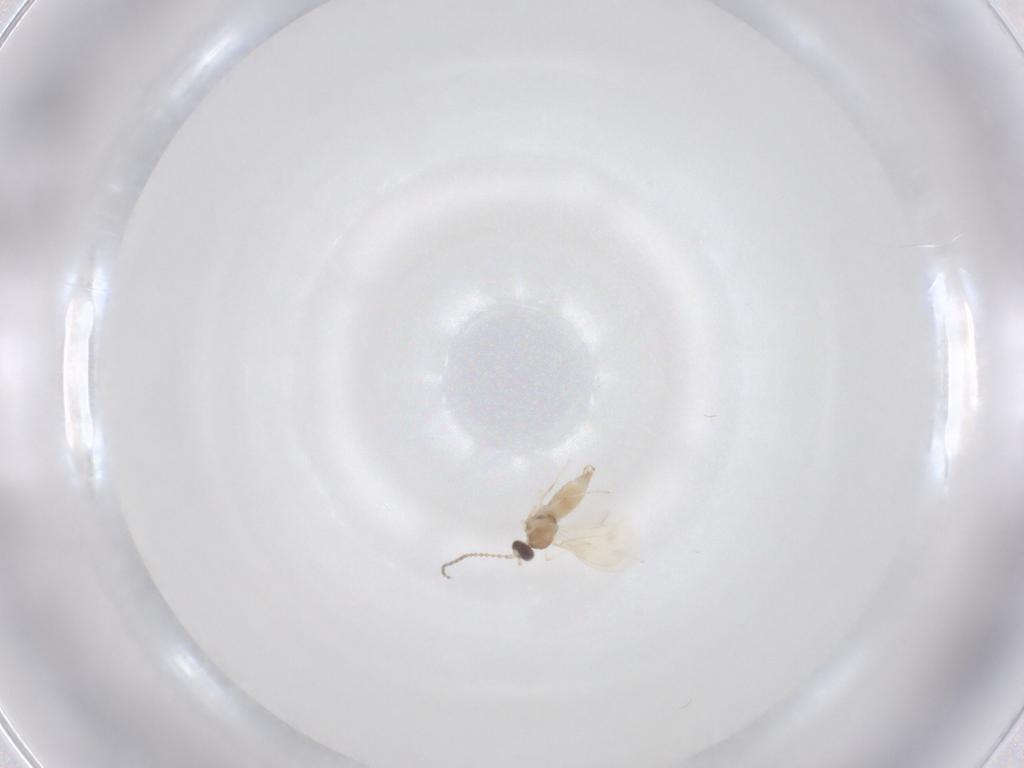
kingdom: Animalia
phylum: Arthropoda
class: Insecta
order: Diptera
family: Cecidomyiidae
